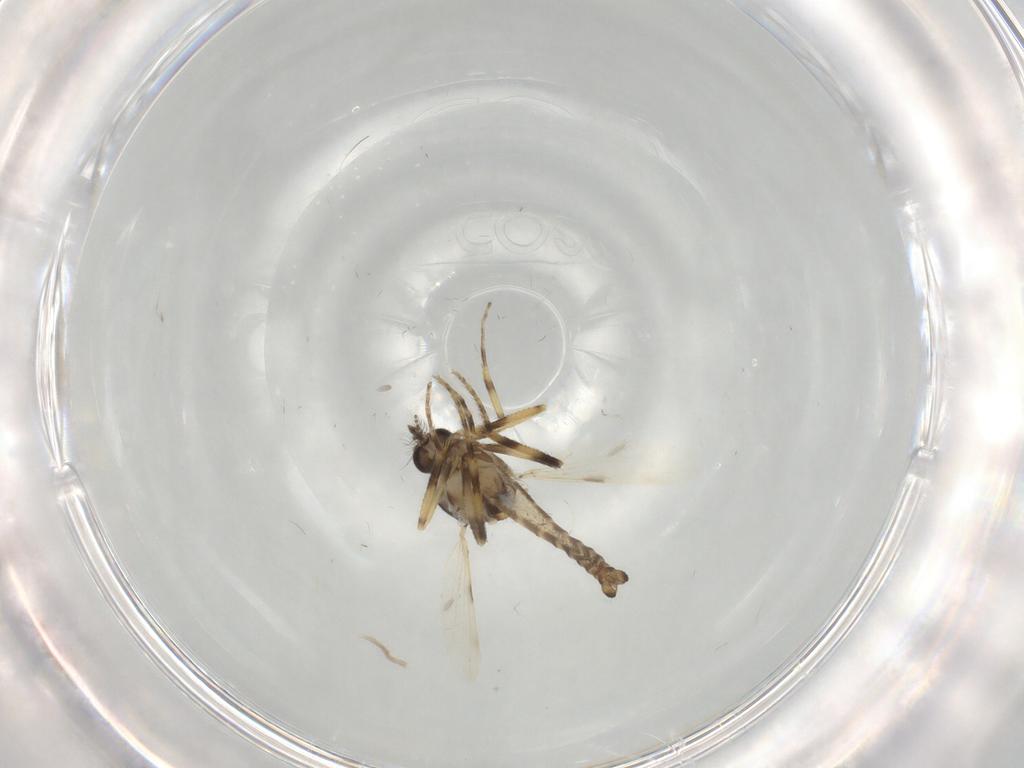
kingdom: Animalia
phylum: Arthropoda
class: Insecta
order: Diptera
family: Ceratopogonidae
